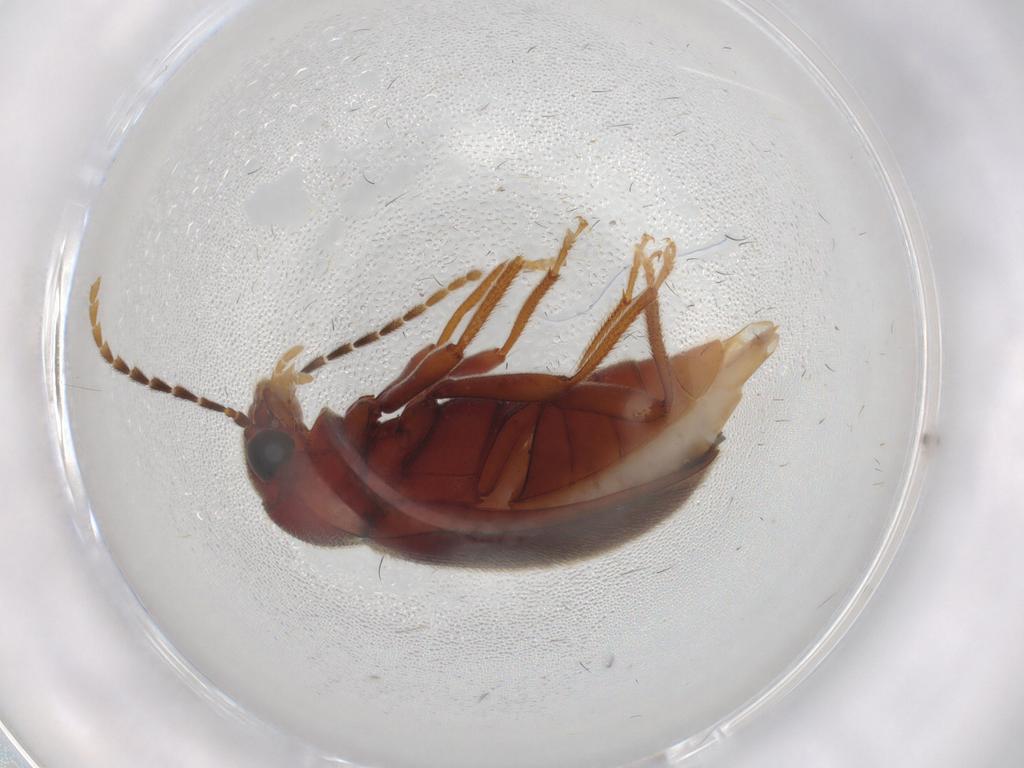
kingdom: Animalia
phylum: Arthropoda
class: Insecta
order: Coleoptera
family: Ptilodactylidae
